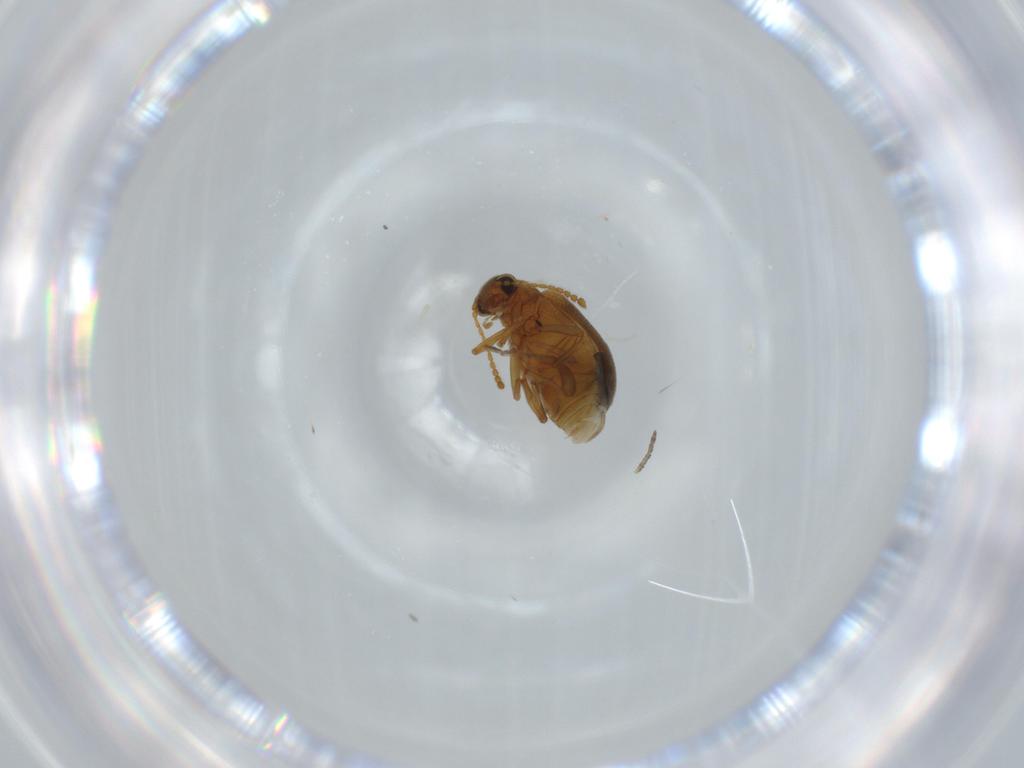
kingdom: Animalia
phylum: Arthropoda
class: Insecta
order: Coleoptera
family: Aderidae
